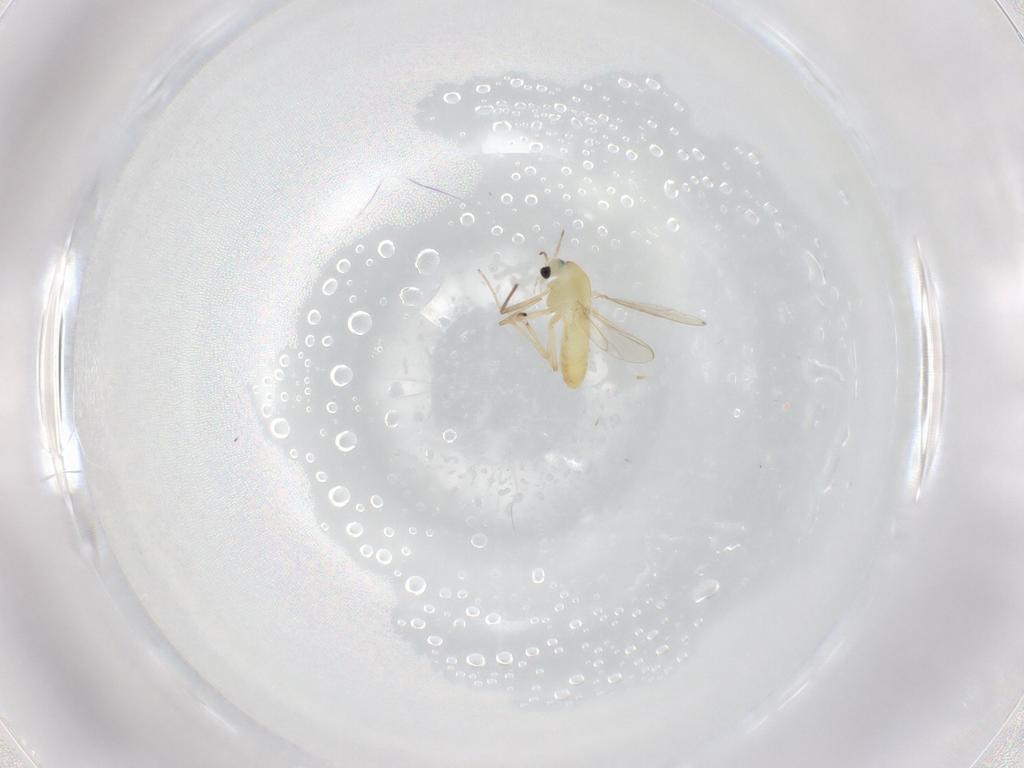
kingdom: Animalia
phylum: Arthropoda
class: Insecta
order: Diptera
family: Chironomidae
